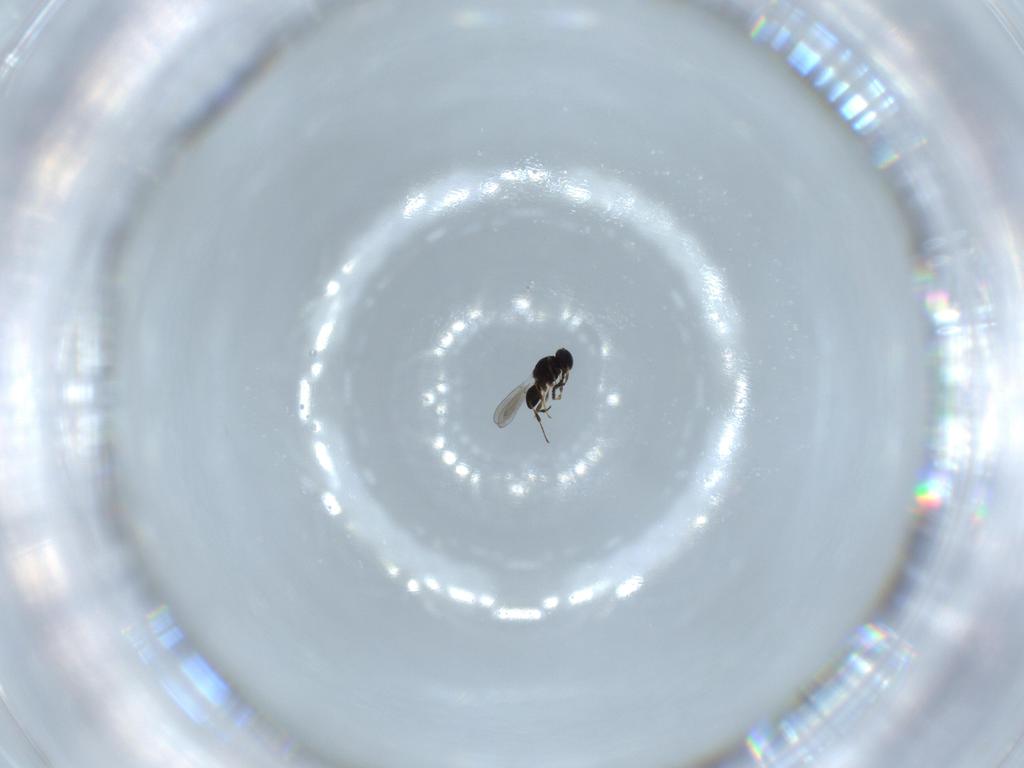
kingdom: Animalia
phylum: Arthropoda
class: Insecta
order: Hymenoptera
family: Platygastridae
